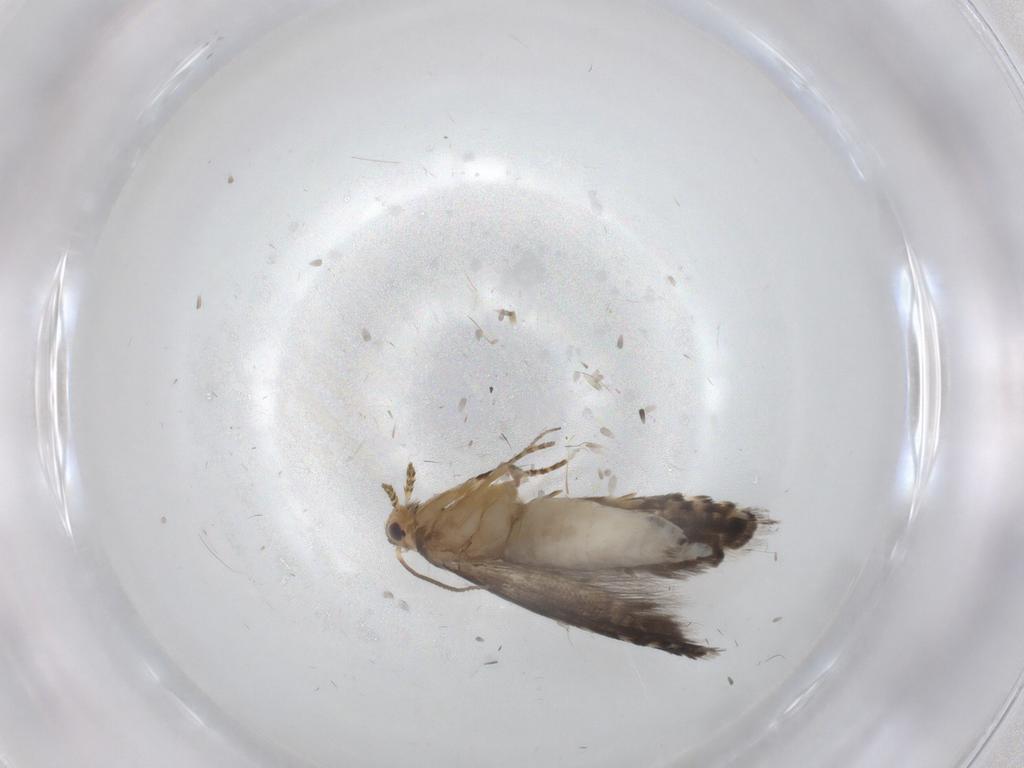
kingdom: Animalia
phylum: Arthropoda
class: Insecta
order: Lepidoptera
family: Glyphipterigidae
